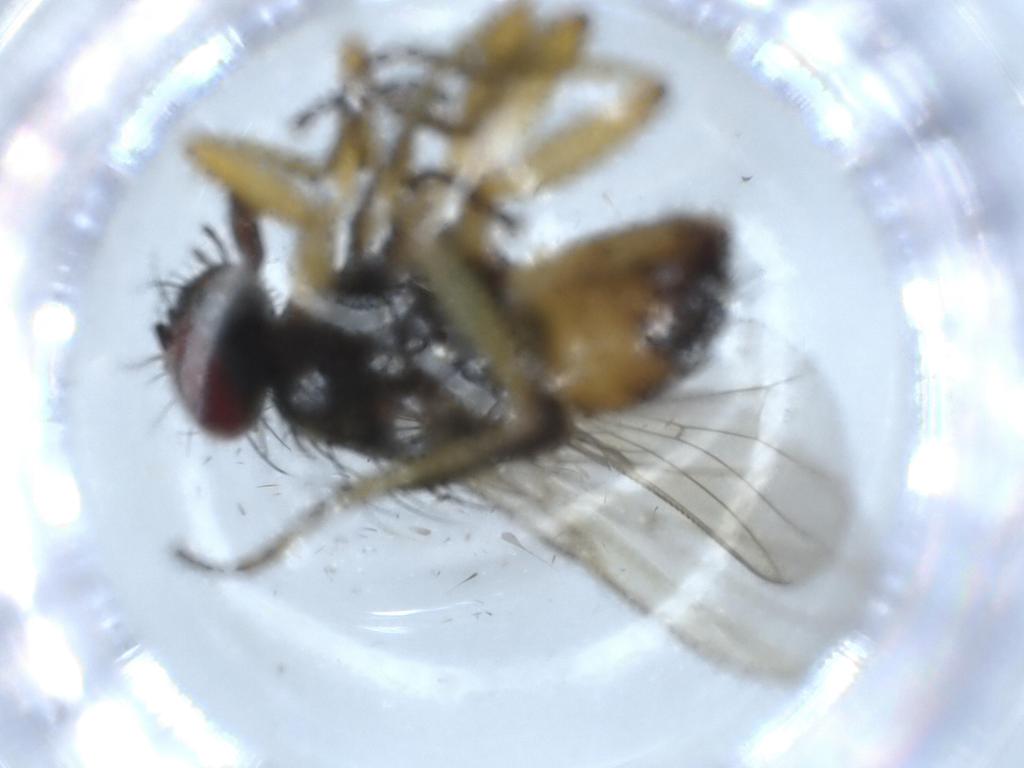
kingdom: Animalia
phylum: Arthropoda
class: Insecta
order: Diptera
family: Muscidae
